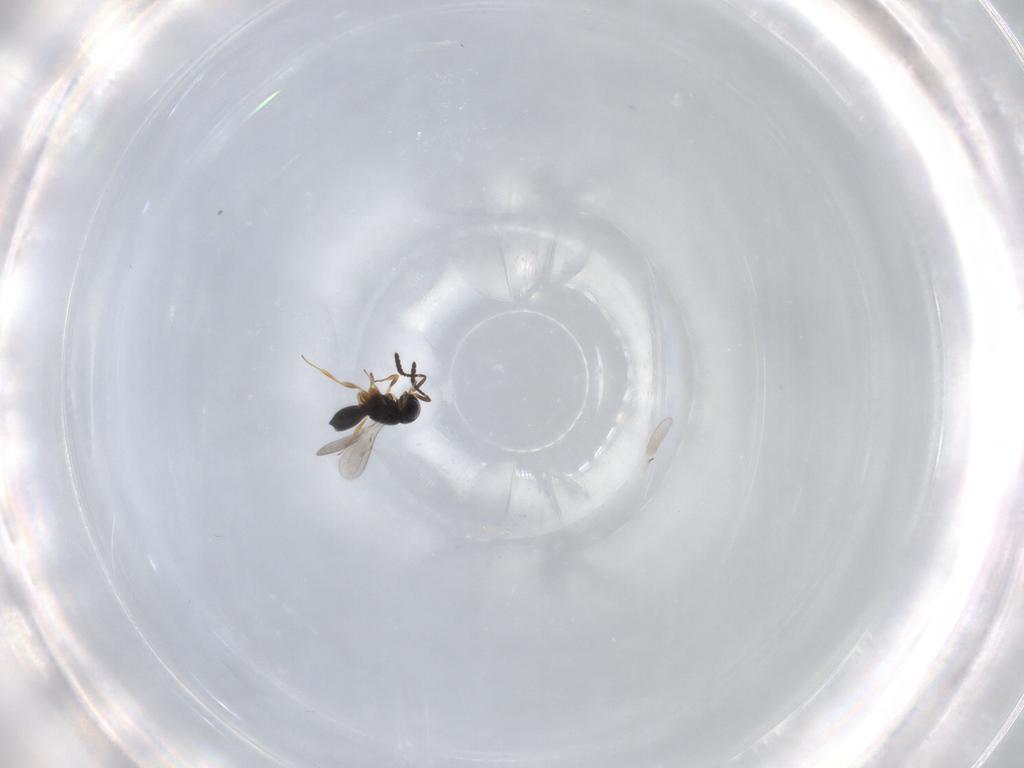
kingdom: Animalia
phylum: Arthropoda
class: Insecta
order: Hymenoptera
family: Scelionidae
